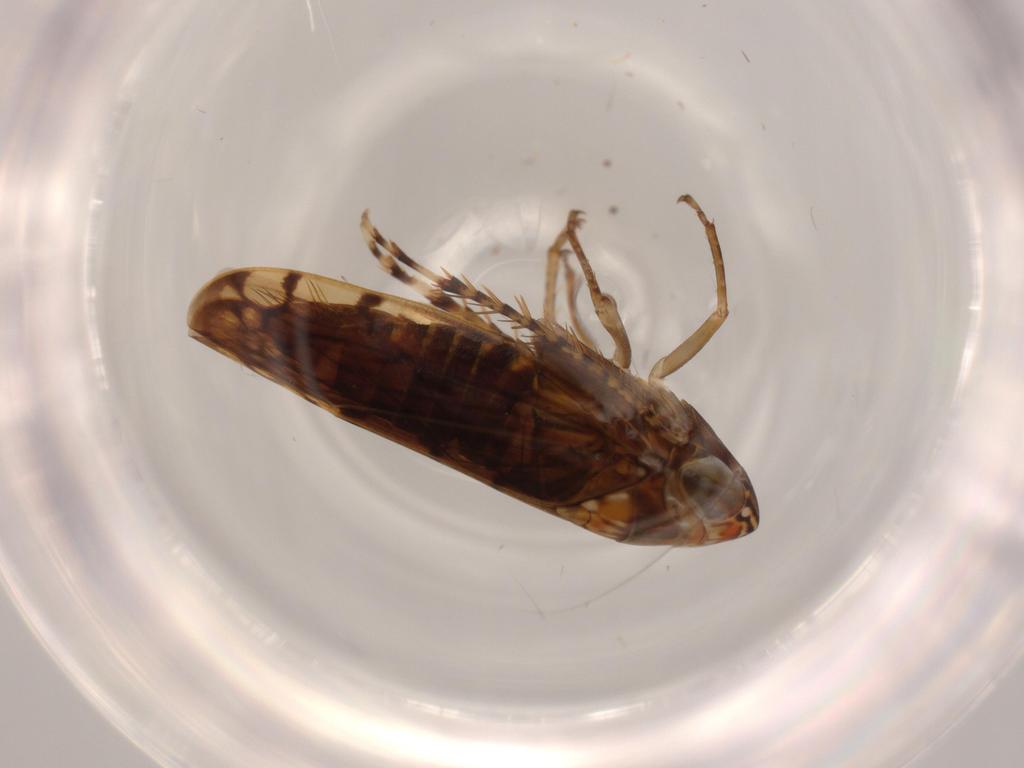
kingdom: Animalia
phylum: Arthropoda
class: Insecta
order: Hemiptera
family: Cicadellidae
